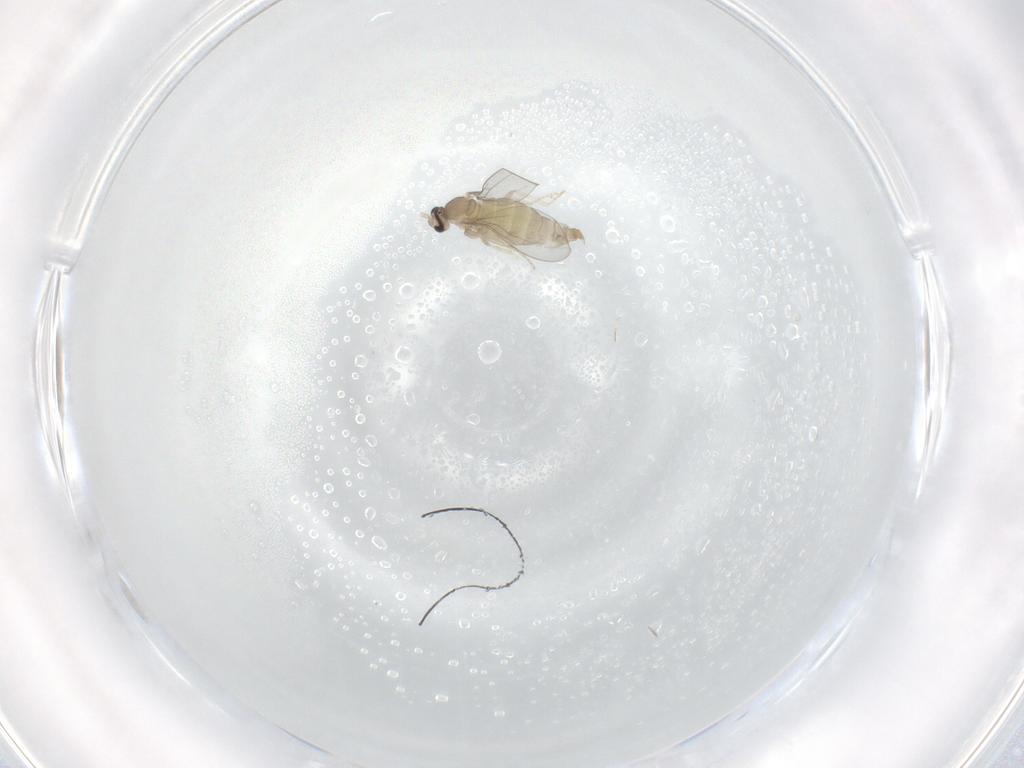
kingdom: Animalia
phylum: Arthropoda
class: Insecta
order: Diptera
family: Cecidomyiidae
